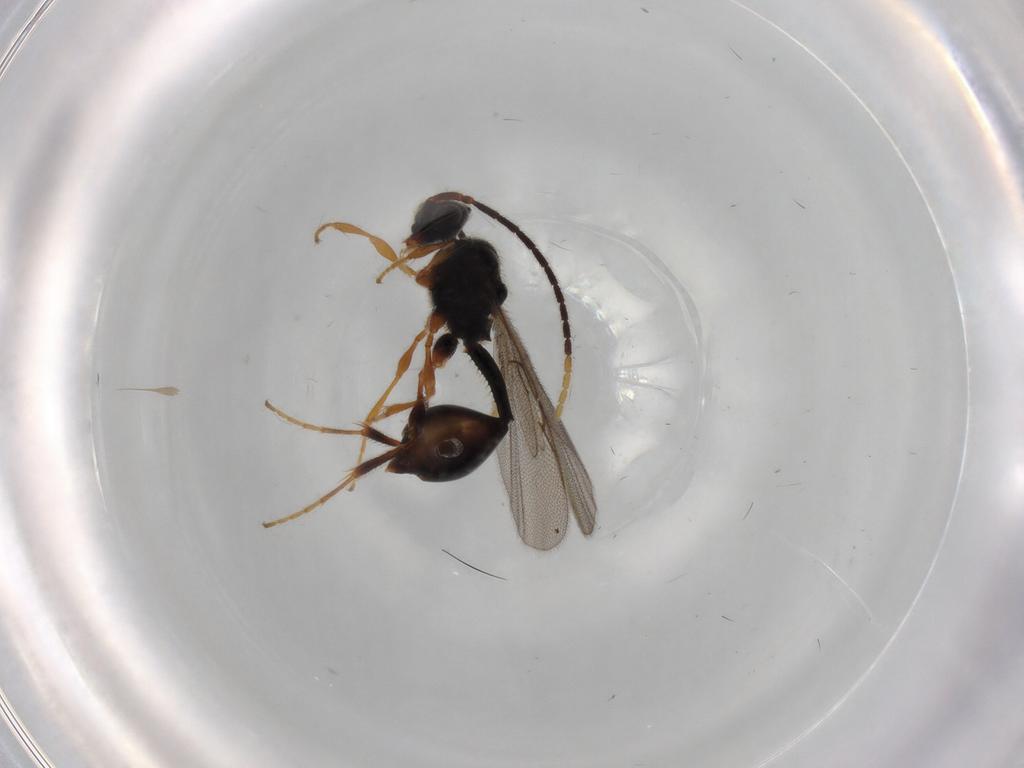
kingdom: Animalia
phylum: Arthropoda
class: Insecta
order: Hymenoptera
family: Diapriidae
